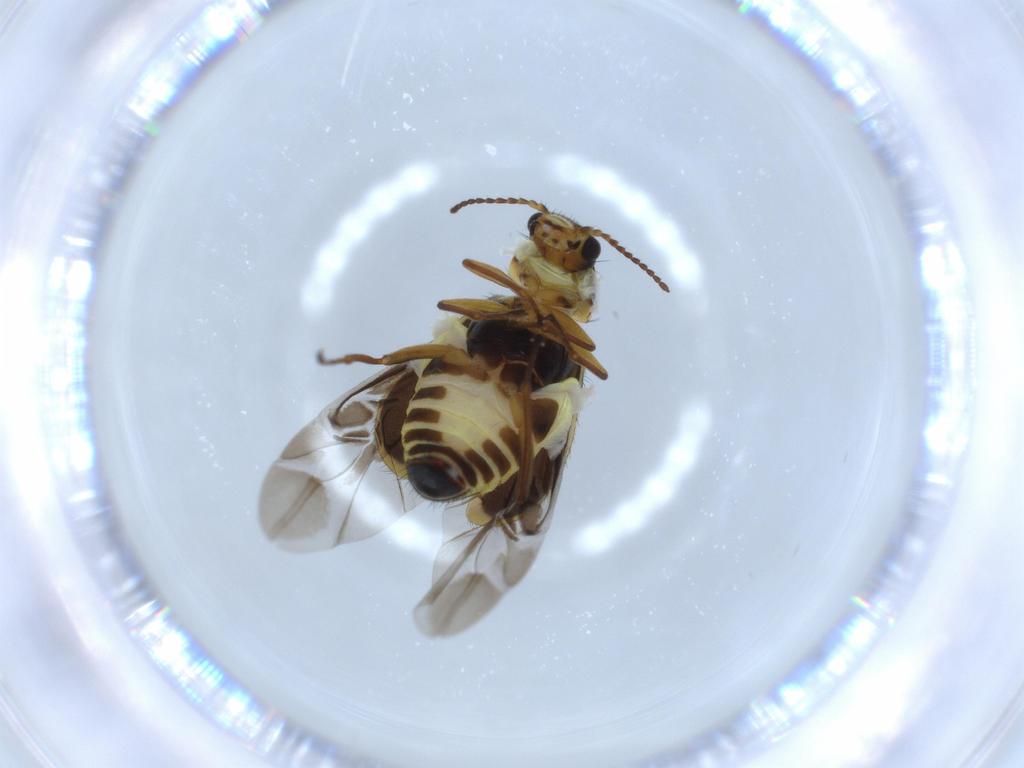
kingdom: Animalia
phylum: Arthropoda
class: Insecta
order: Coleoptera
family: Melyridae
